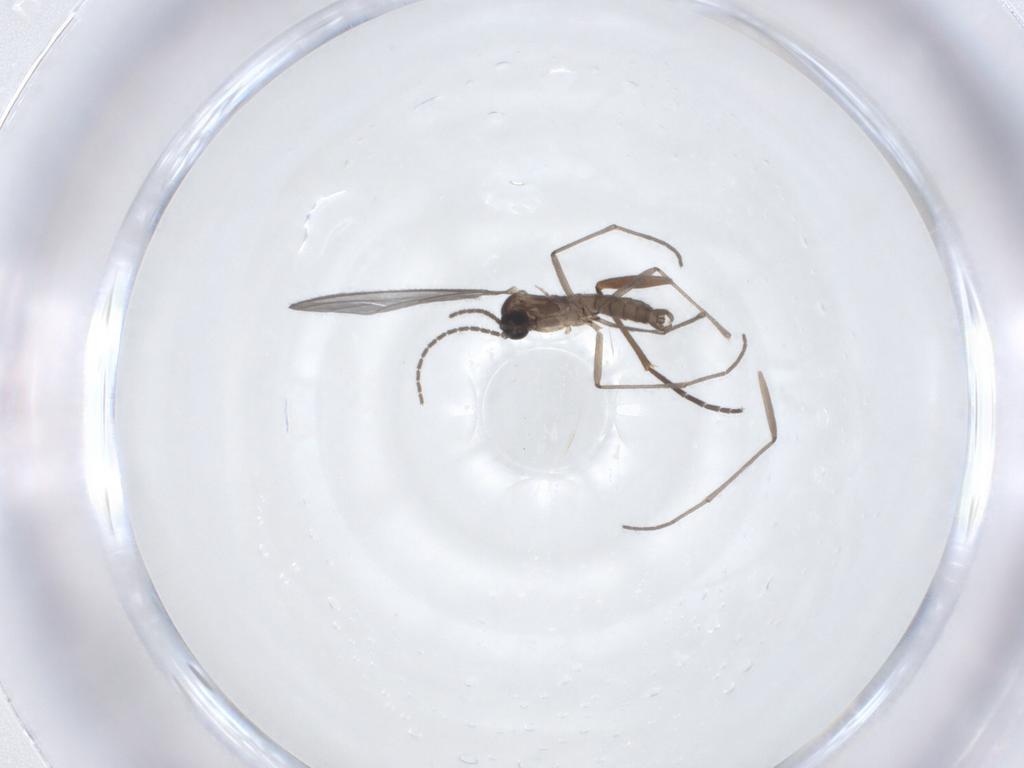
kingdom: Animalia
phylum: Arthropoda
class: Insecta
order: Diptera
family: Sciaridae
